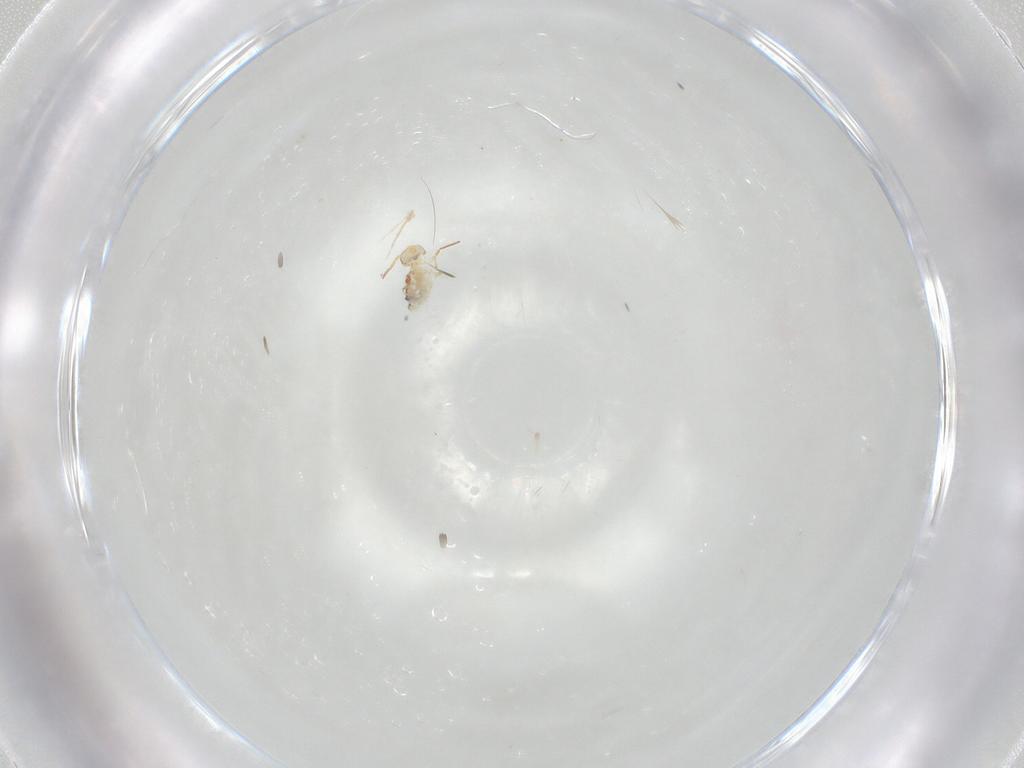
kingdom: Animalia
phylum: Arthropoda
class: Collembola
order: Symphypleona
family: Bourletiellidae
